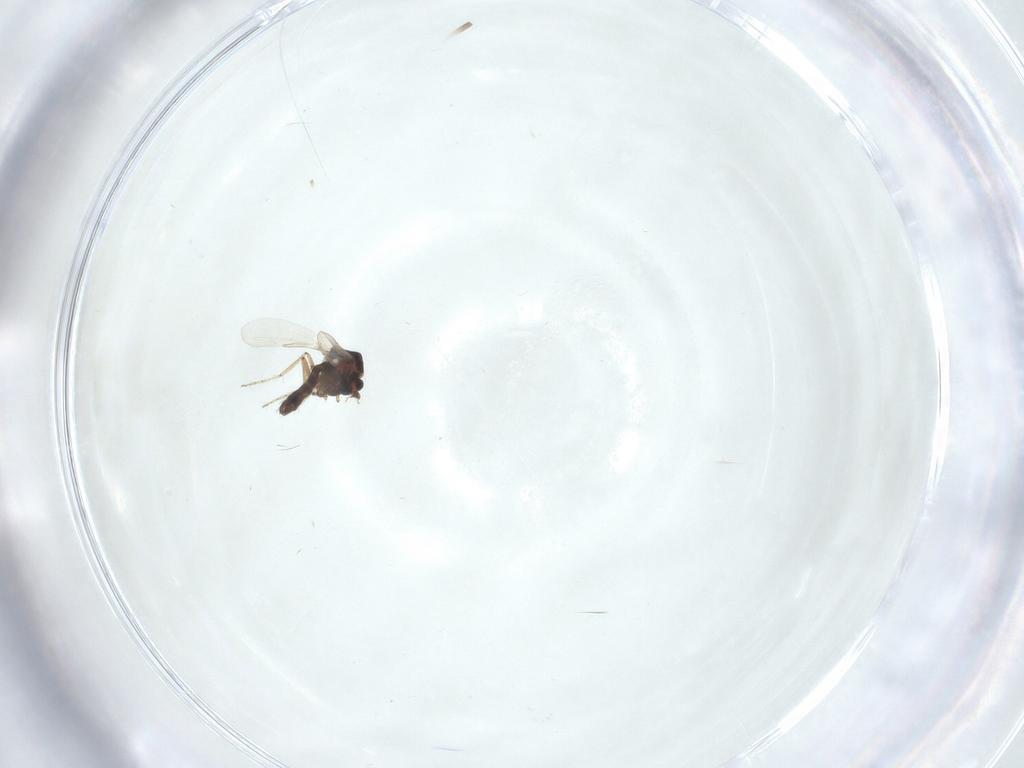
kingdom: Animalia
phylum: Arthropoda
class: Insecta
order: Diptera
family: Ceratopogonidae
